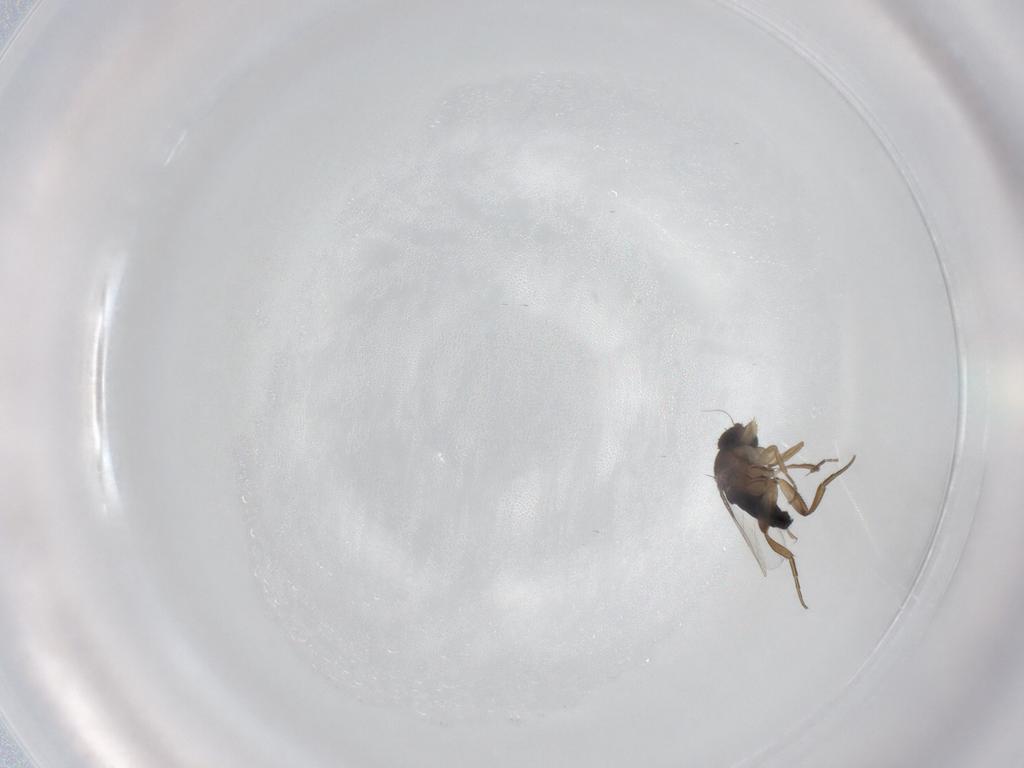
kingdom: Animalia
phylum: Arthropoda
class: Insecta
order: Diptera
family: Phoridae
